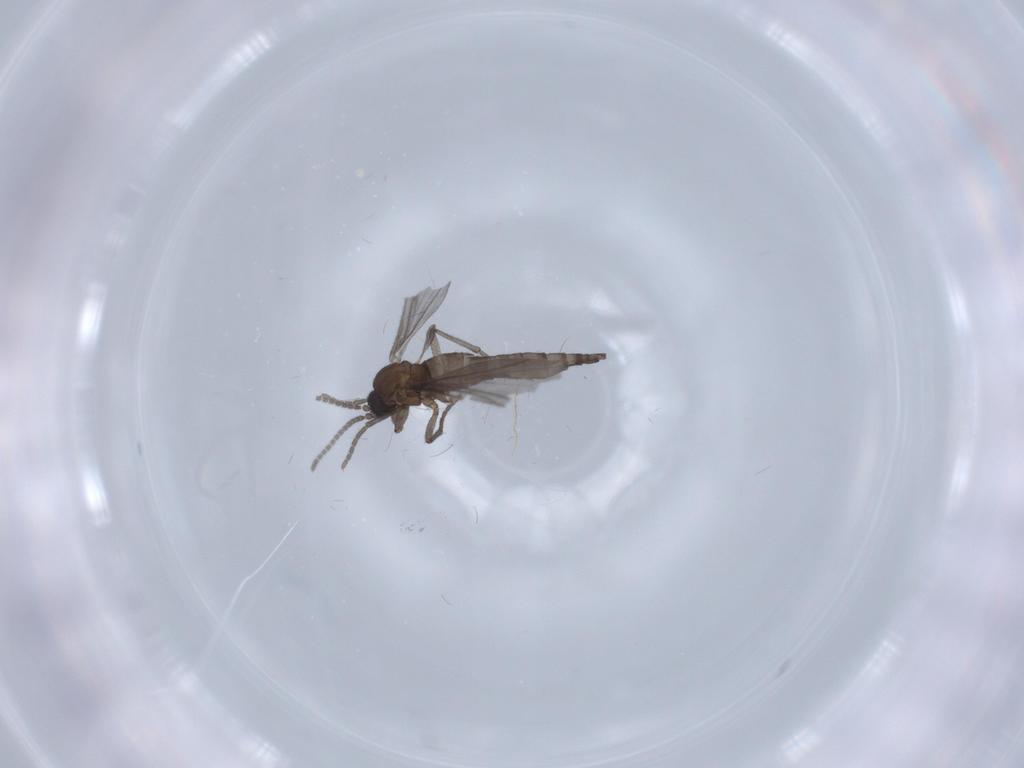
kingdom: Animalia
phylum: Arthropoda
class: Insecta
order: Diptera
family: Sciaridae
